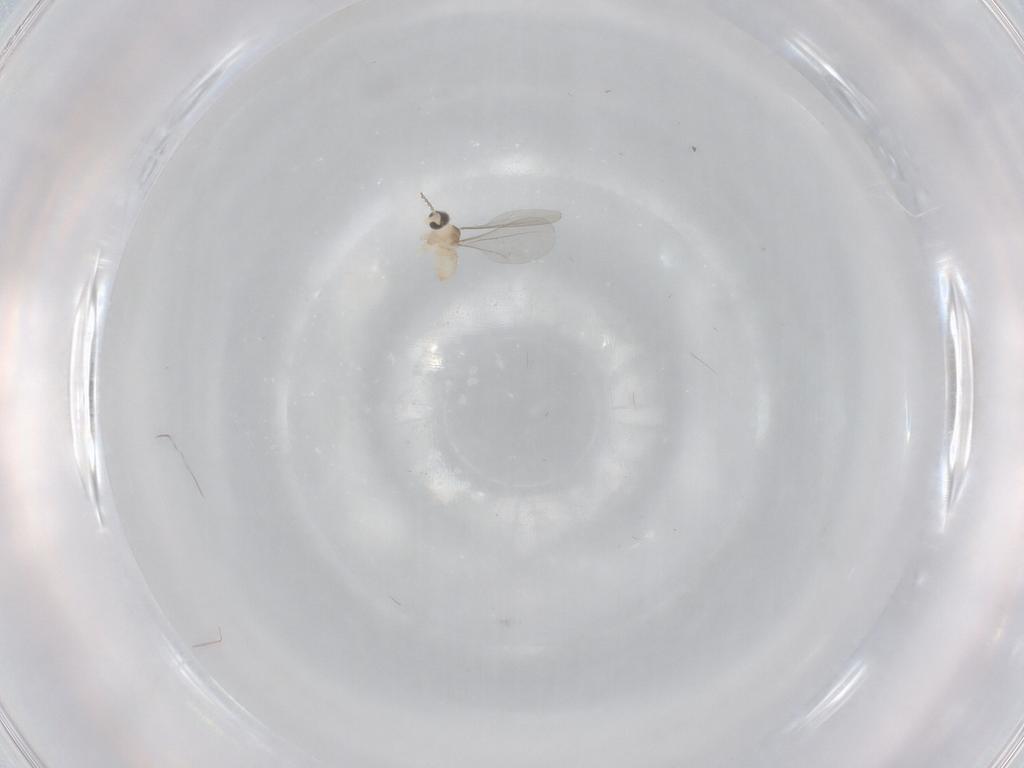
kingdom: Animalia
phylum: Arthropoda
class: Insecta
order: Diptera
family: Cecidomyiidae
